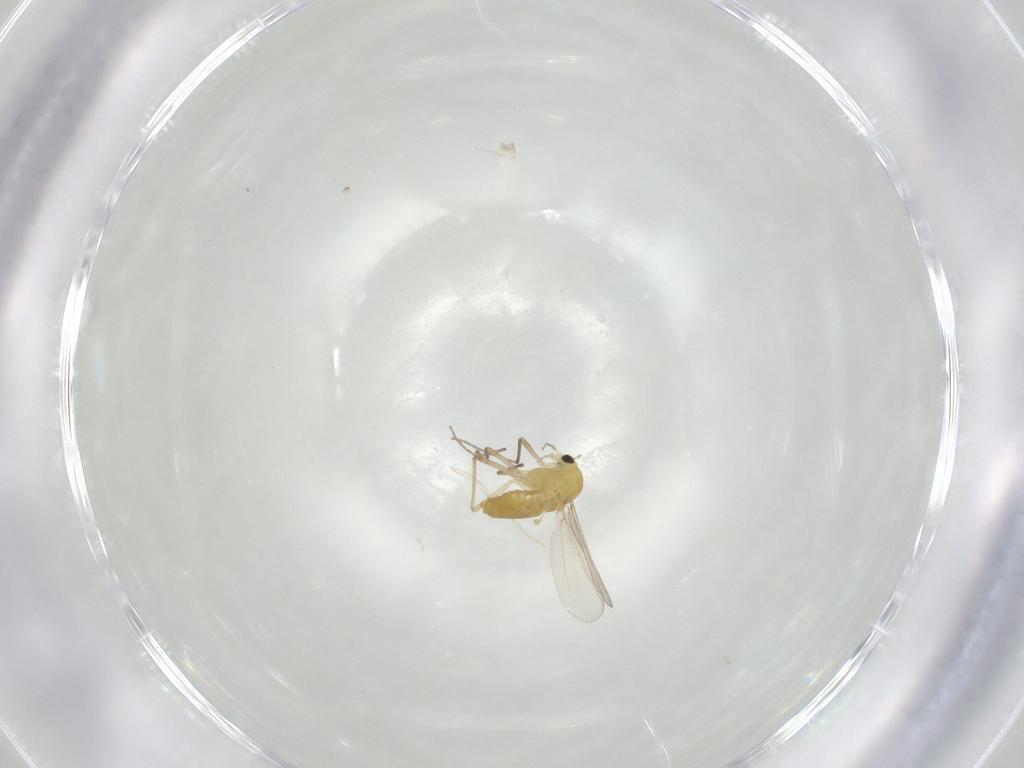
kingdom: Animalia
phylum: Arthropoda
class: Insecta
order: Diptera
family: Chironomidae
